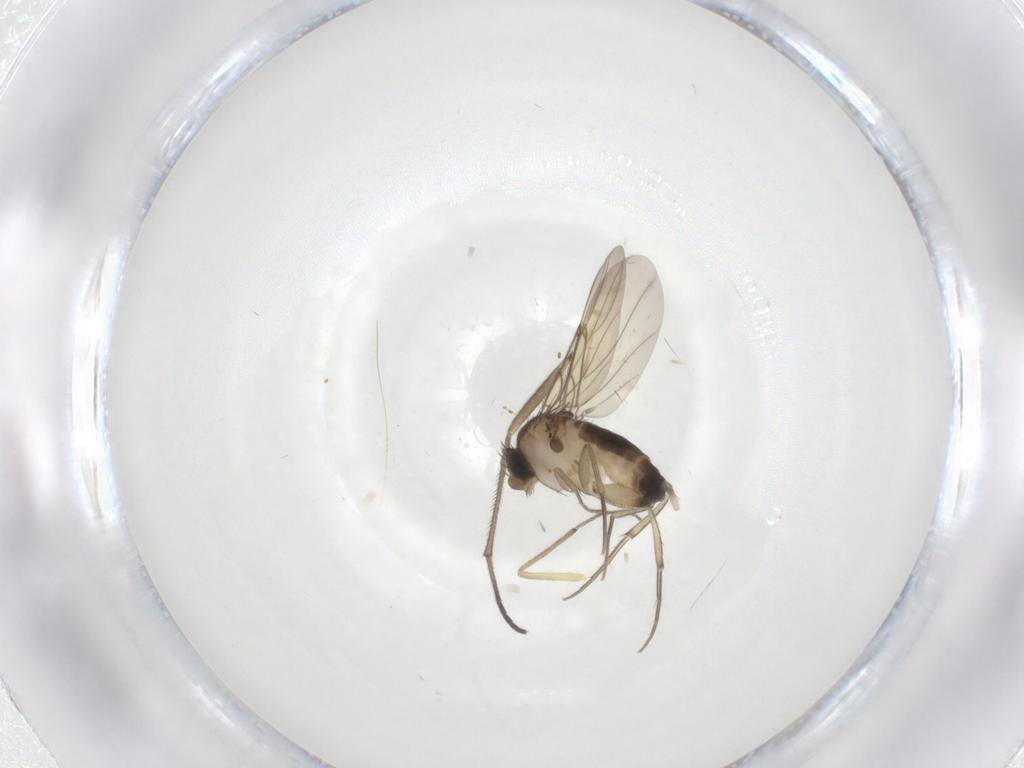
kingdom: Animalia
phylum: Arthropoda
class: Insecta
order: Diptera
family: Phoridae
